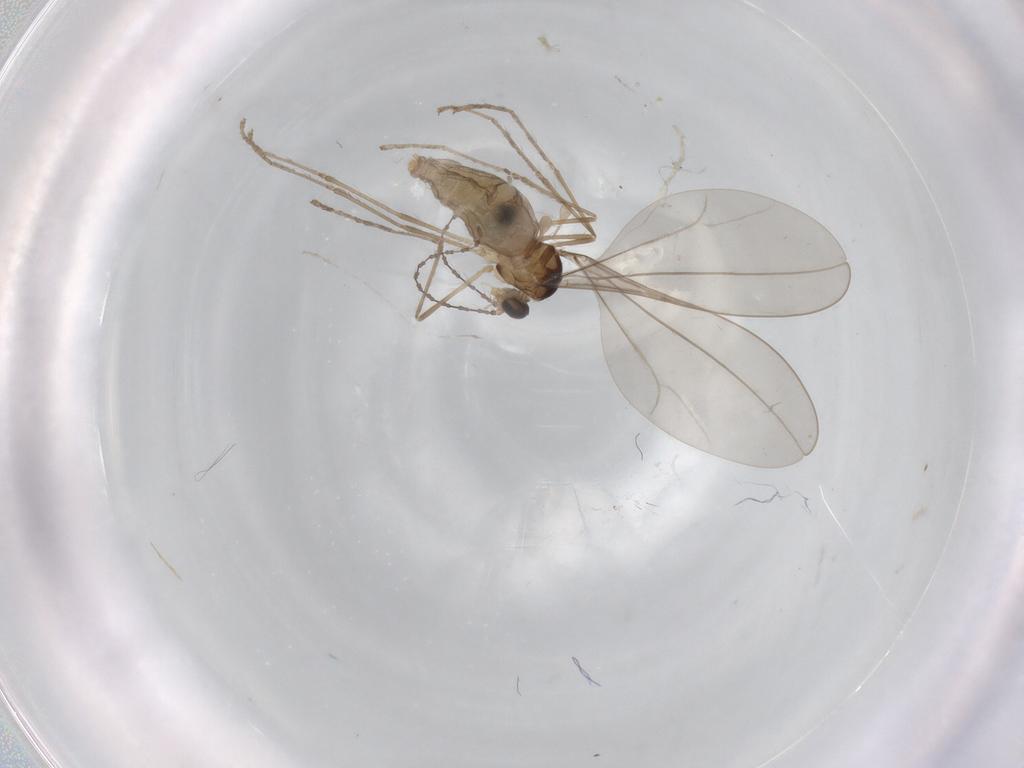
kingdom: Animalia
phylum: Arthropoda
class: Insecta
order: Diptera
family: Cecidomyiidae
